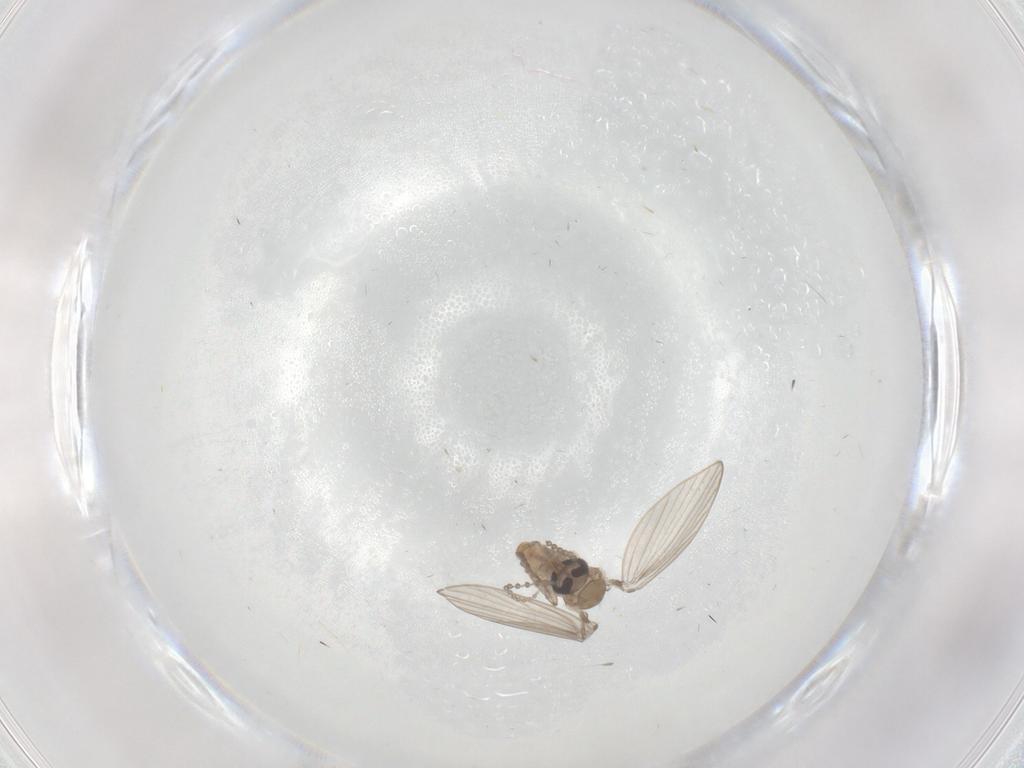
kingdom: Animalia
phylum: Arthropoda
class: Insecta
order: Diptera
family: Psychodidae
